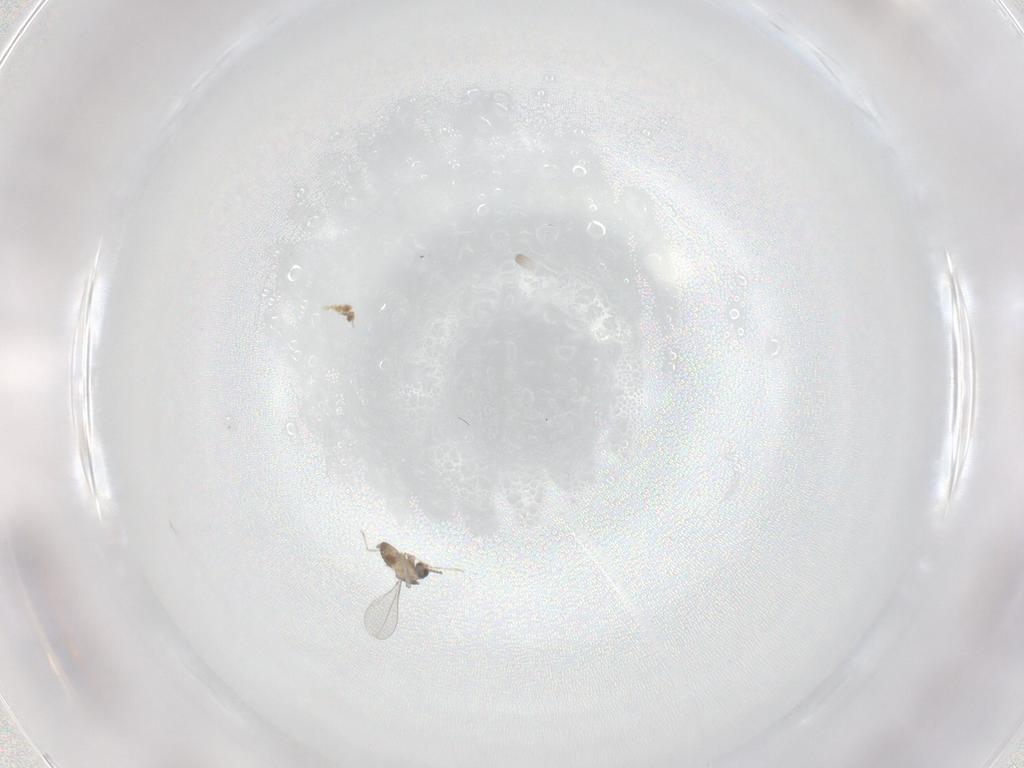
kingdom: Animalia
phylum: Arthropoda
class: Insecta
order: Diptera
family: Cecidomyiidae
